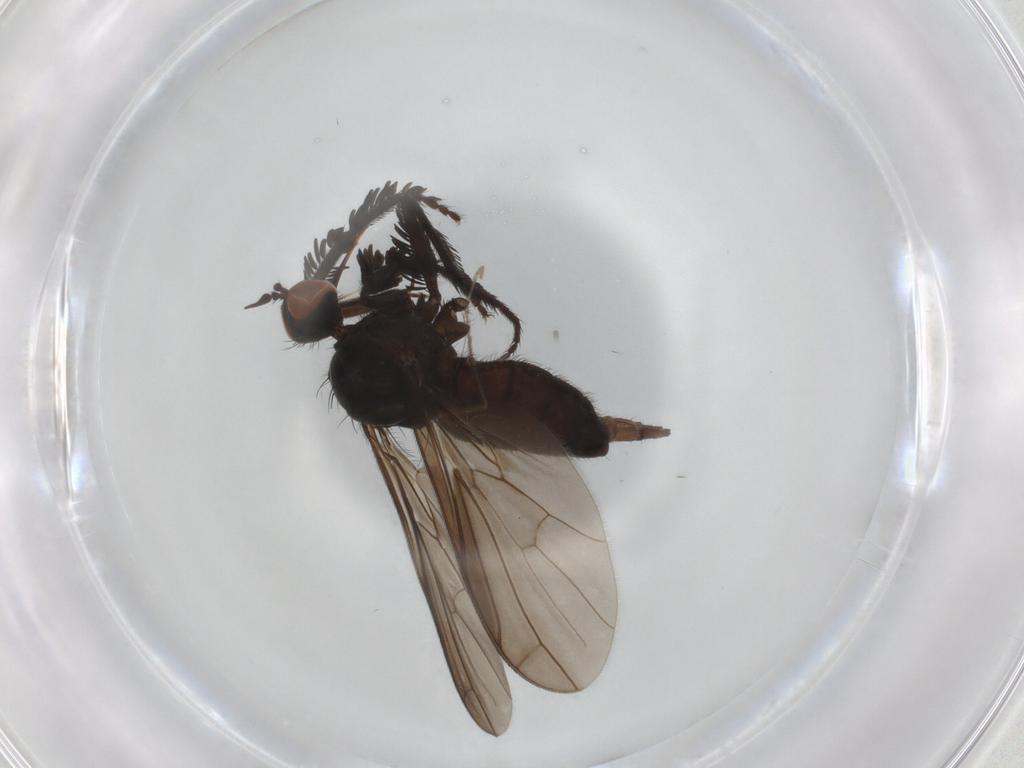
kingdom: Animalia
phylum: Arthropoda
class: Insecta
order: Diptera
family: Empididae
